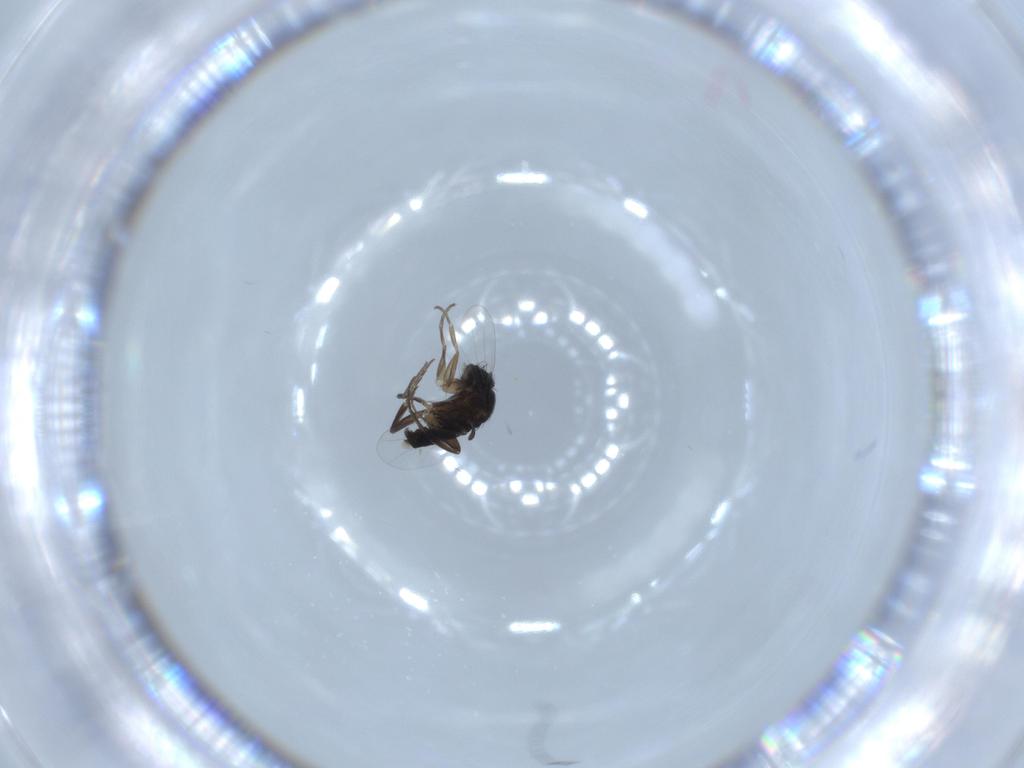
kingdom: Animalia
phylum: Arthropoda
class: Insecta
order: Diptera
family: Phoridae
